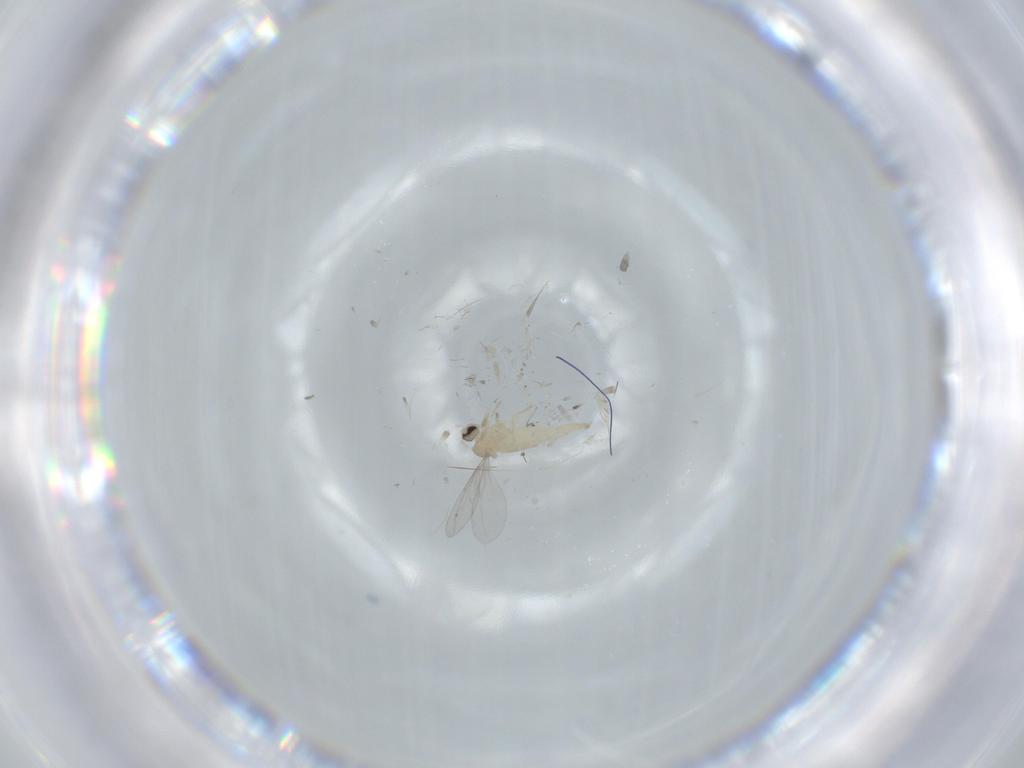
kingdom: Animalia
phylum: Arthropoda
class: Insecta
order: Diptera
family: Cecidomyiidae
